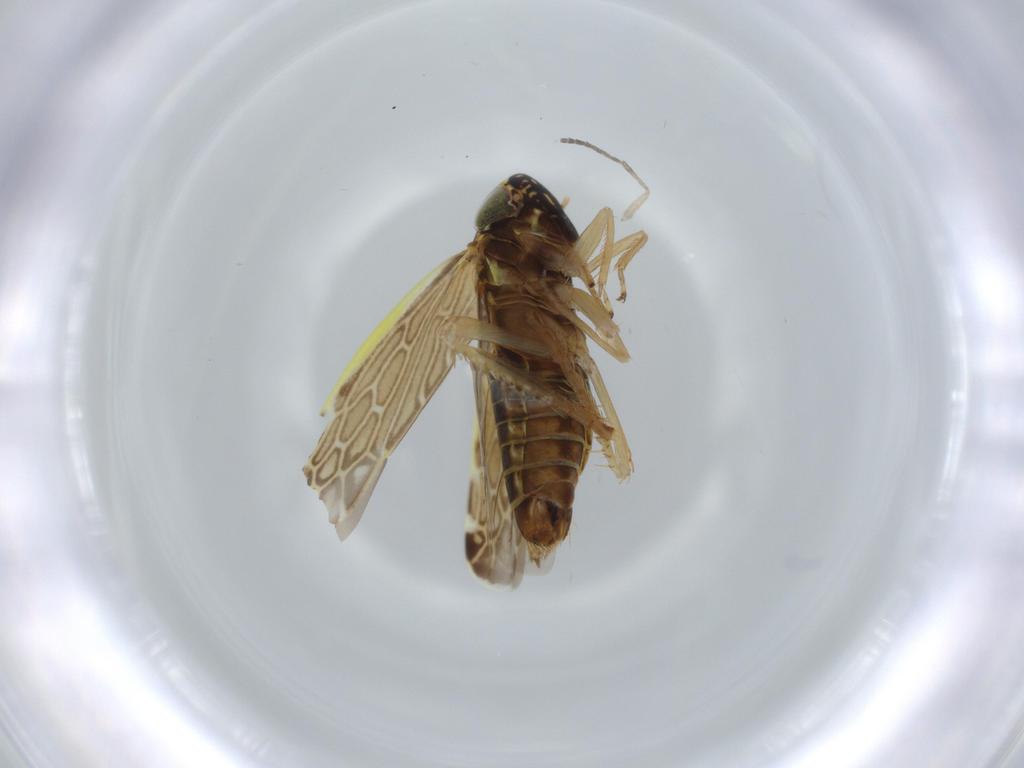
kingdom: Animalia
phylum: Arthropoda
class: Insecta
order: Hemiptera
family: Cicadellidae
